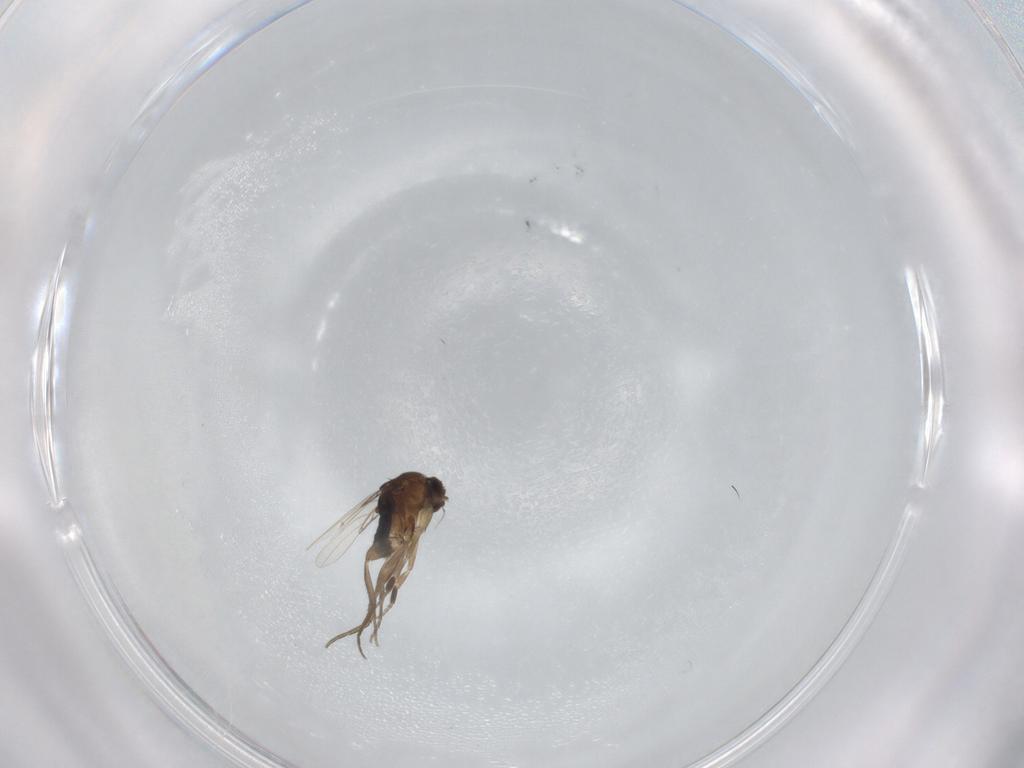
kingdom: Animalia
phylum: Arthropoda
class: Insecta
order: Diptera
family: Phoridae
